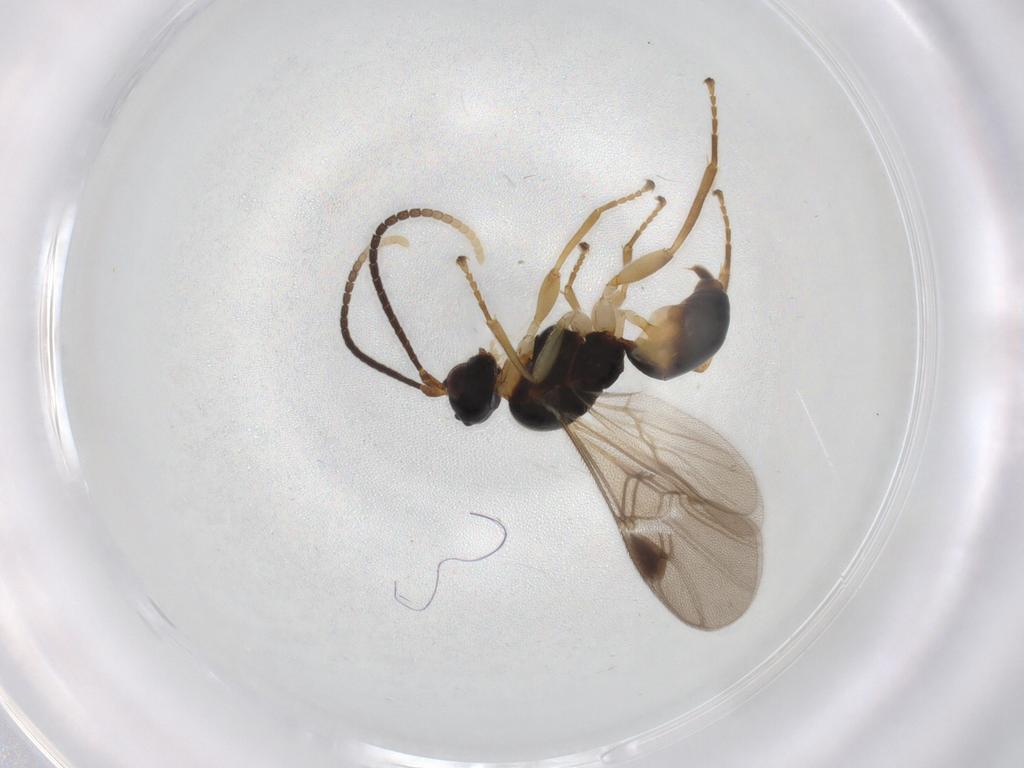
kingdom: Animalia
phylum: Arthropoda
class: Insecta
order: Hymenoptera
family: Braconidae
